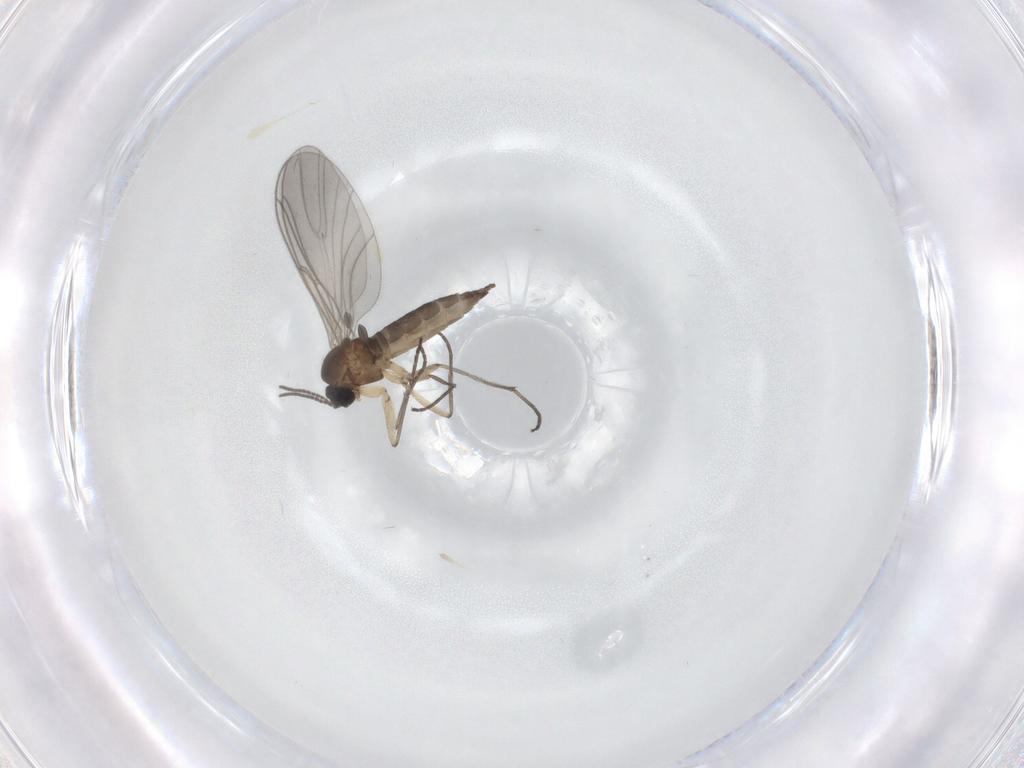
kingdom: Animalia
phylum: Arthropoda
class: Insecta
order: Diptera
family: Sciaridae
